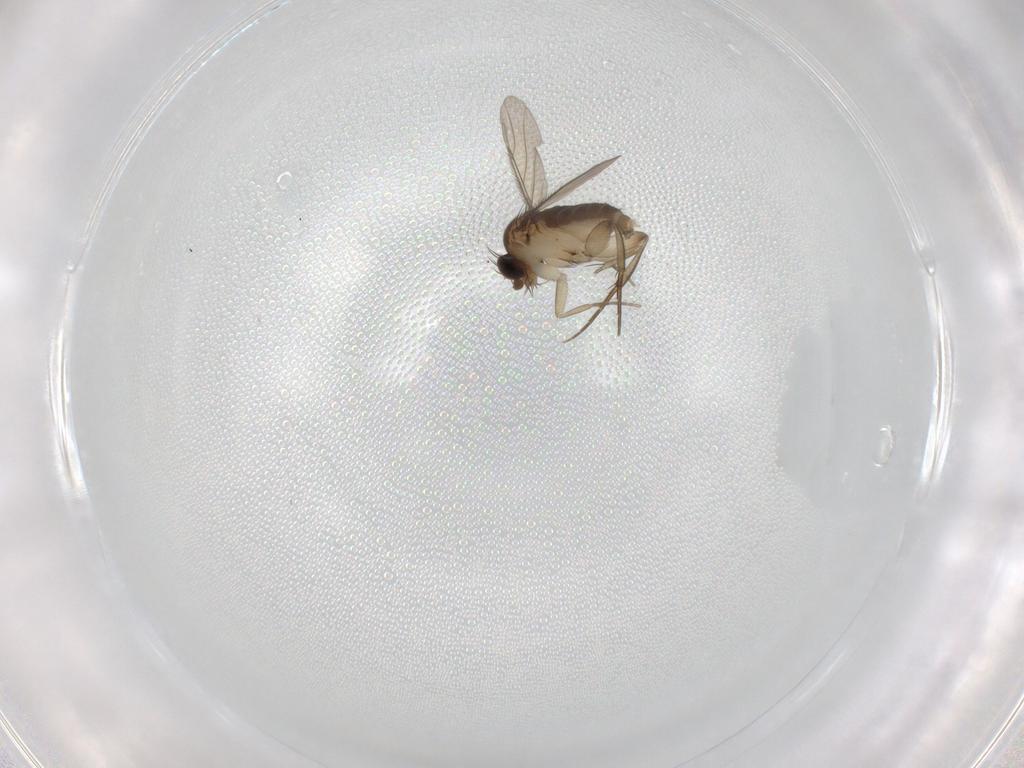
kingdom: Animalia
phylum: Arthropoda
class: Insecta
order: Diptera
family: Phoridae
